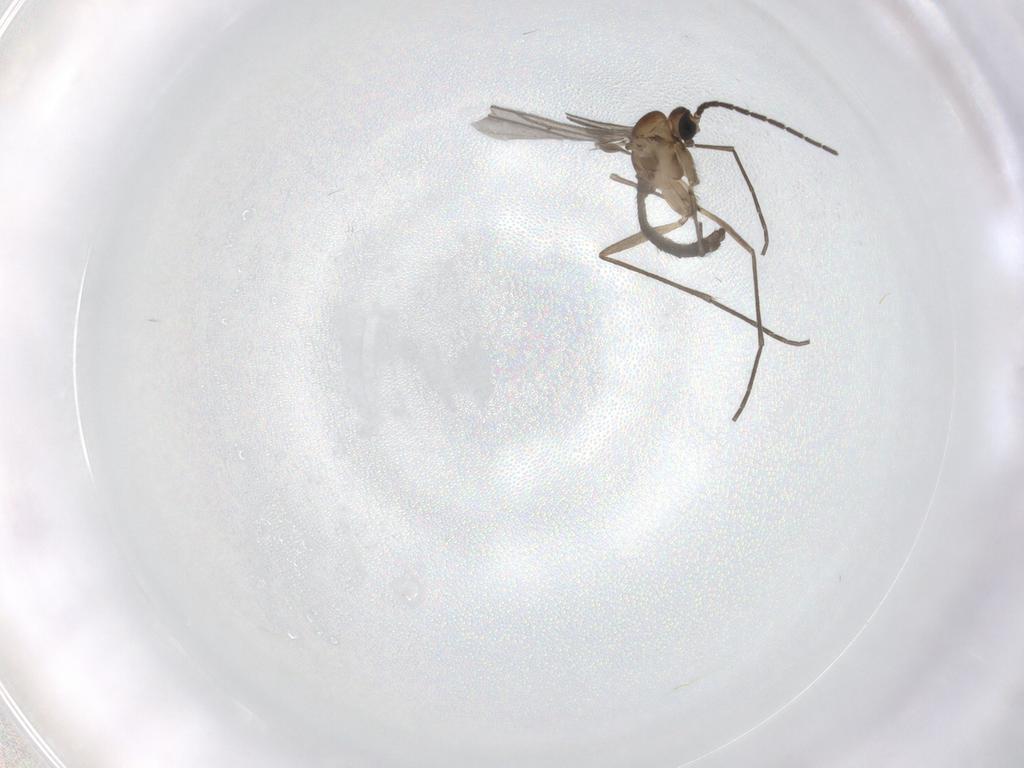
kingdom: Animalia
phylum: Arthropoda
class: Insecta
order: Diptera
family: Sciaridae
